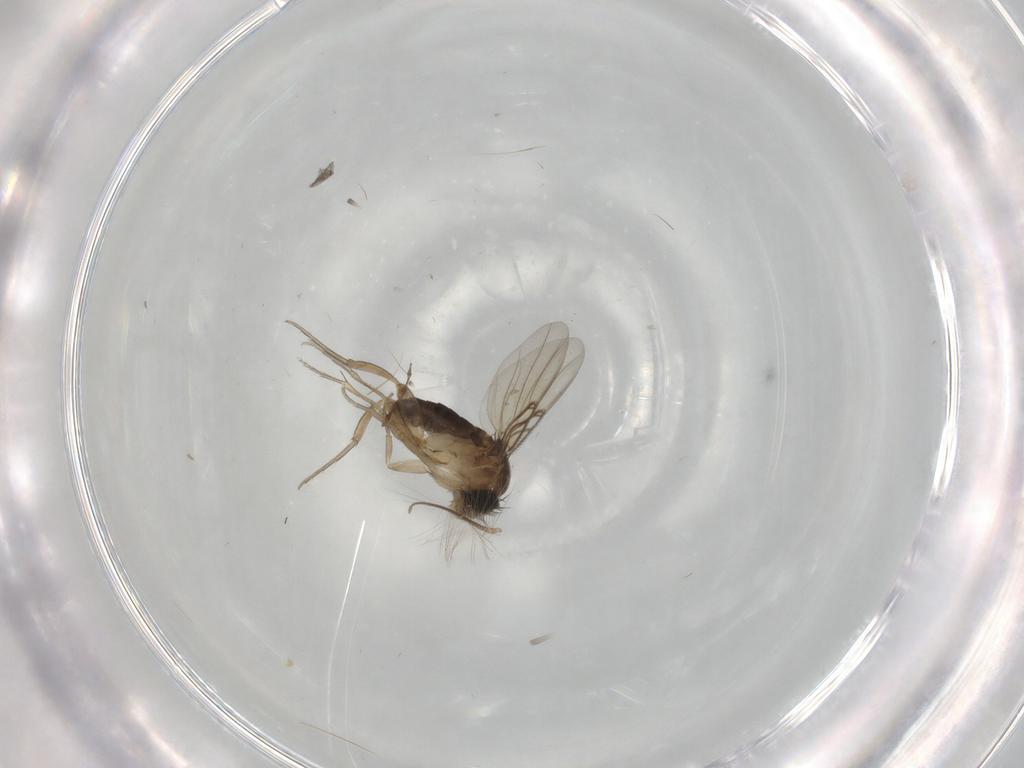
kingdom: Animalia
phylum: Arthropoda
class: Insecta
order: Diptera
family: Phoridae
